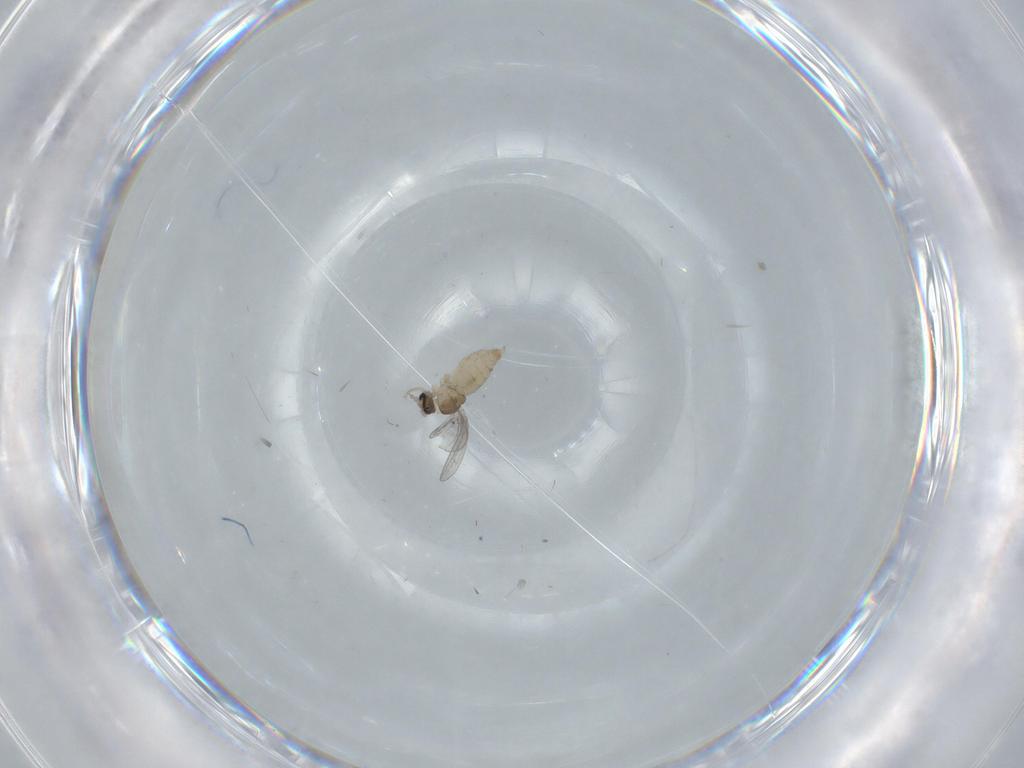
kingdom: Animalia
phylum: Arthropoda
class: Insecta
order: Diptera
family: Cecidomyiidae
